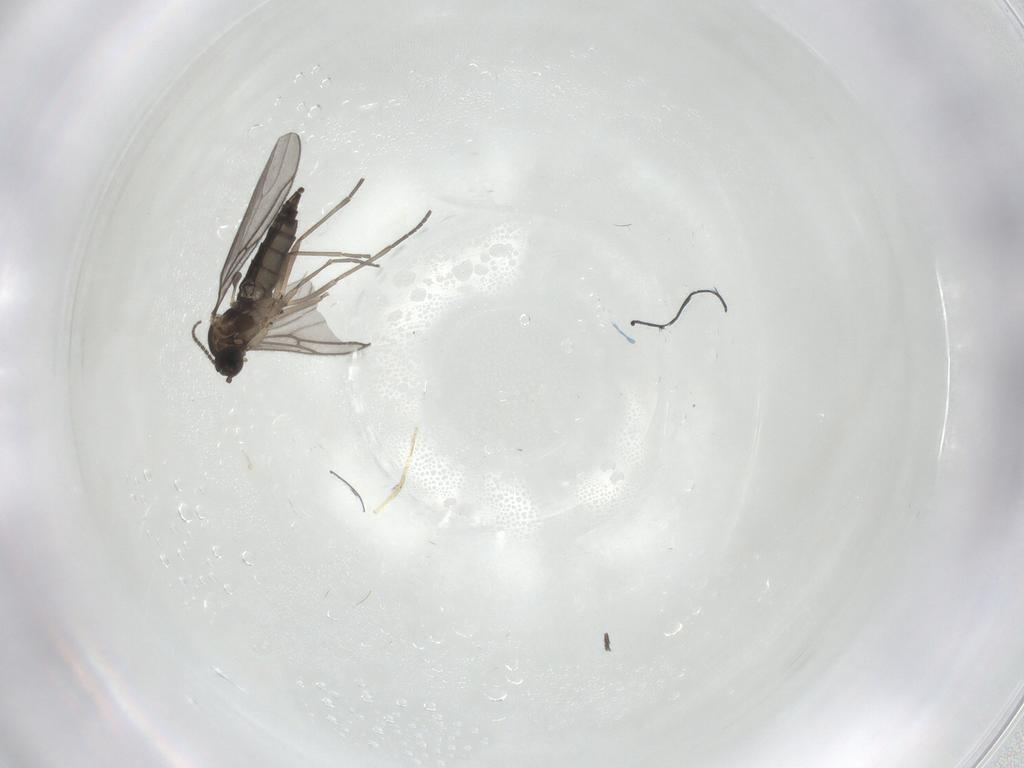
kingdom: Animalia
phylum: Arthropoda
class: Insecta
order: Diptera
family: Sciaridae
